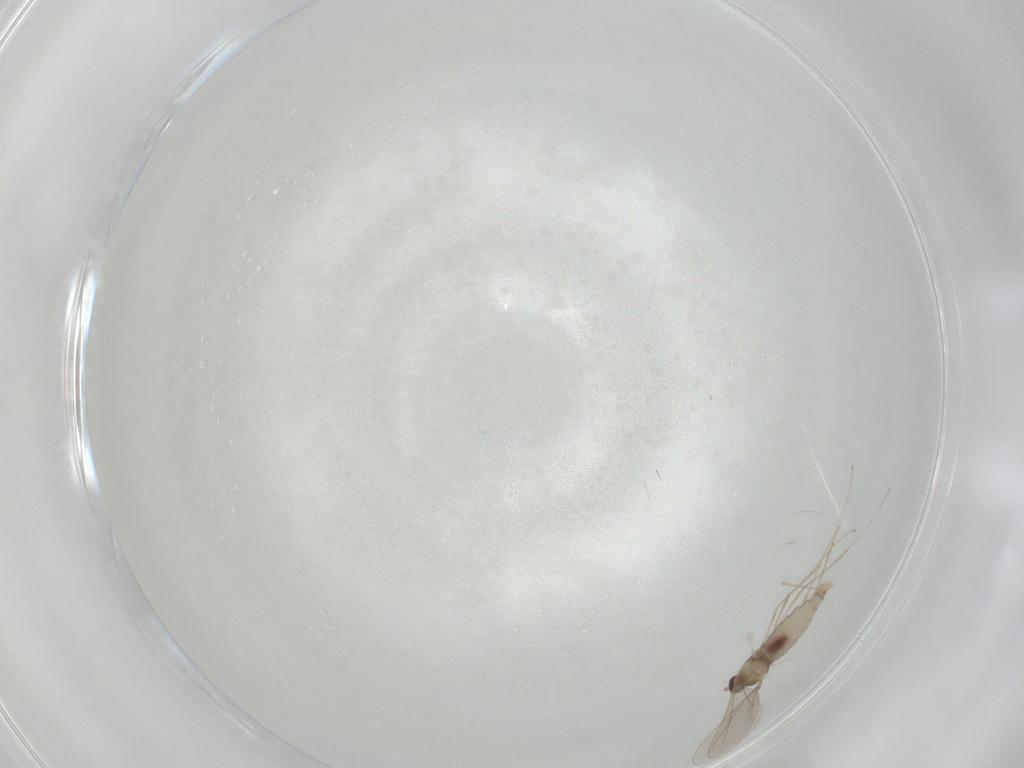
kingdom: Animalia
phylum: Arthropoda
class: Insecta
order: Diptera
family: Cecidomyiidae
